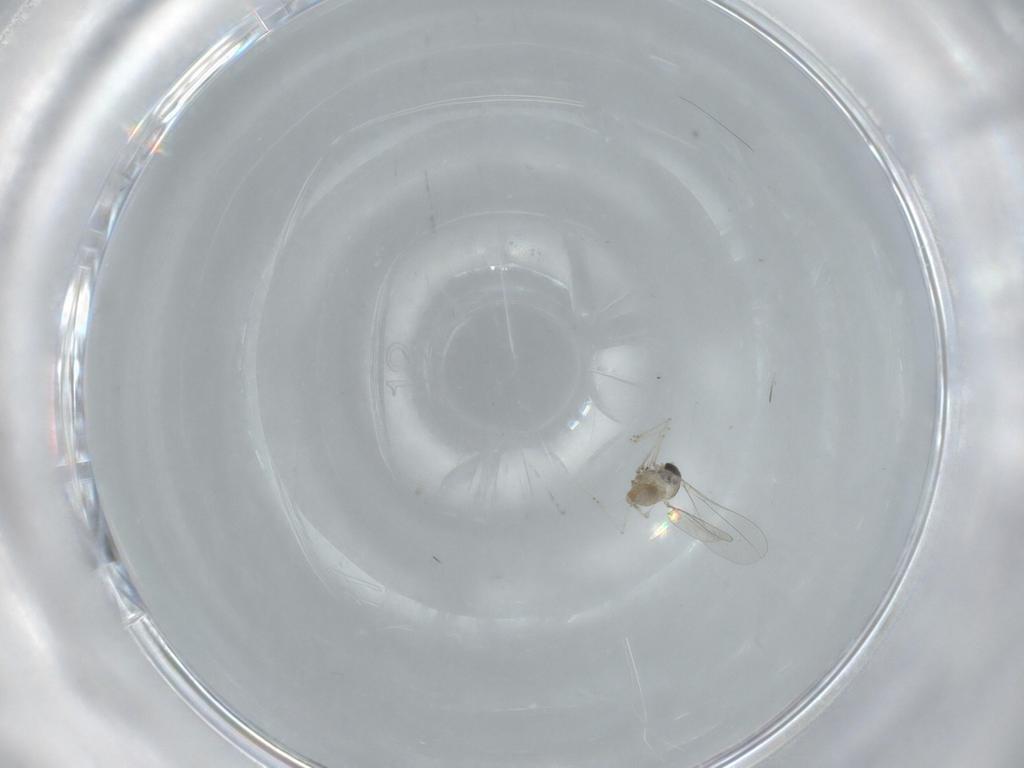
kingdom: Animalia
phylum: Arthropoda
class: Insecta
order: Diptera
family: Cecidomyiidae
